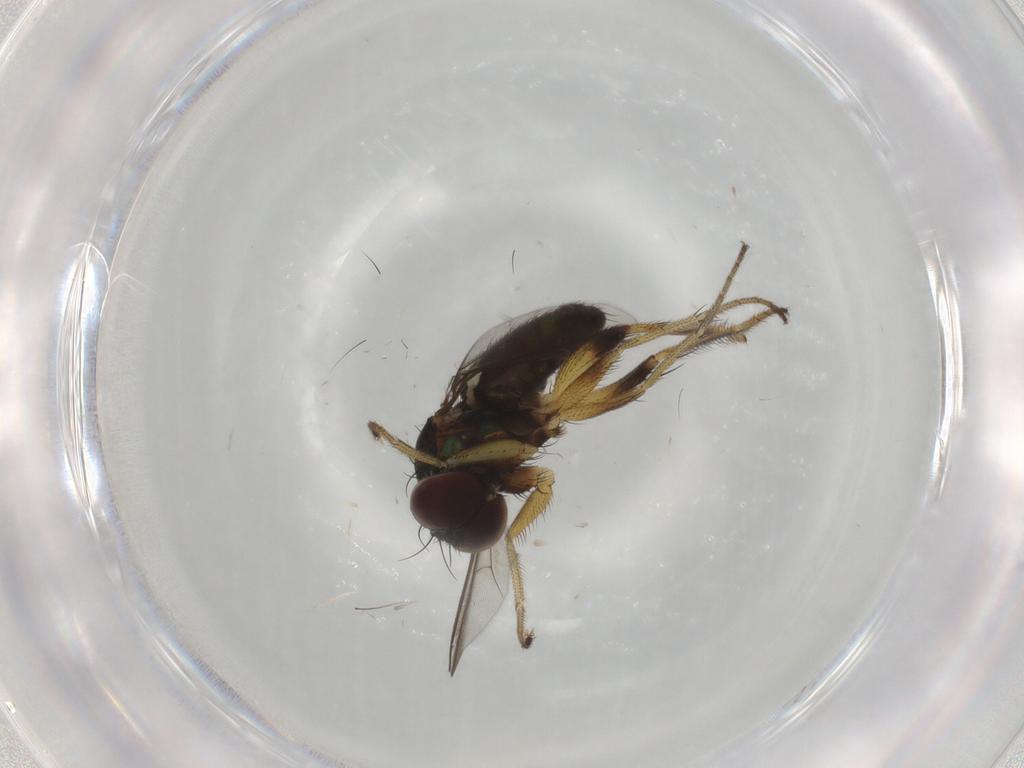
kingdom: Animalia
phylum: Arthropoda
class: Insecta
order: Diptera
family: Dolichopodidae
